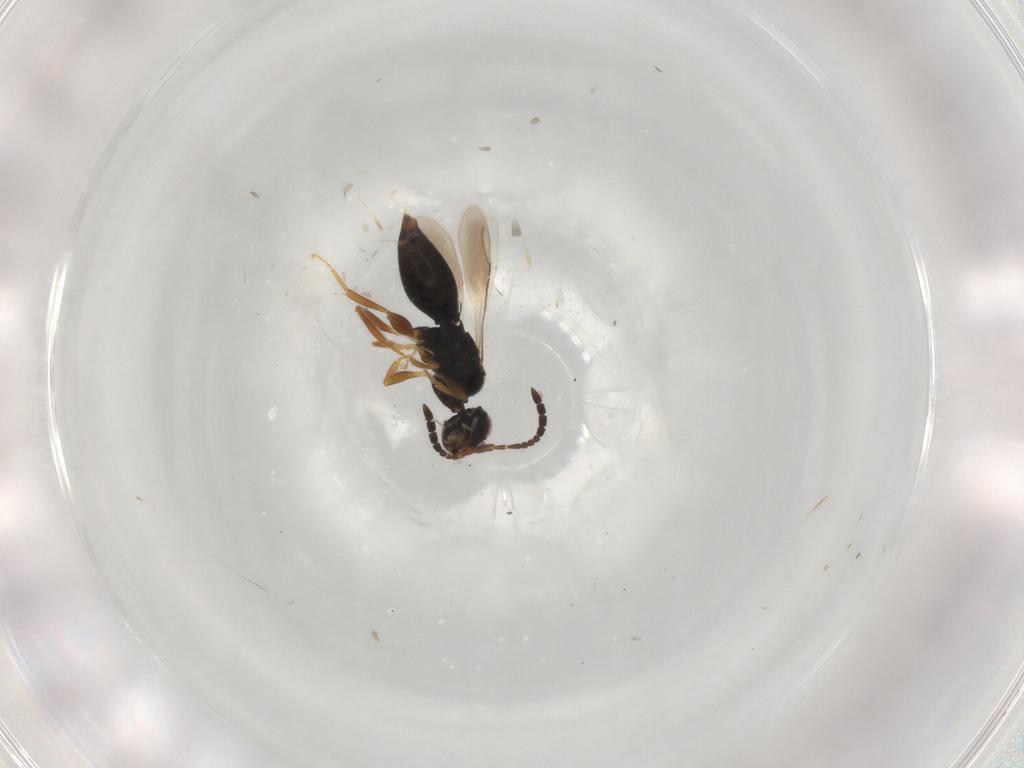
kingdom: Animalia
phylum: Arthropoda
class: Insecta
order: Hymenoptera
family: Ceraphronidae
